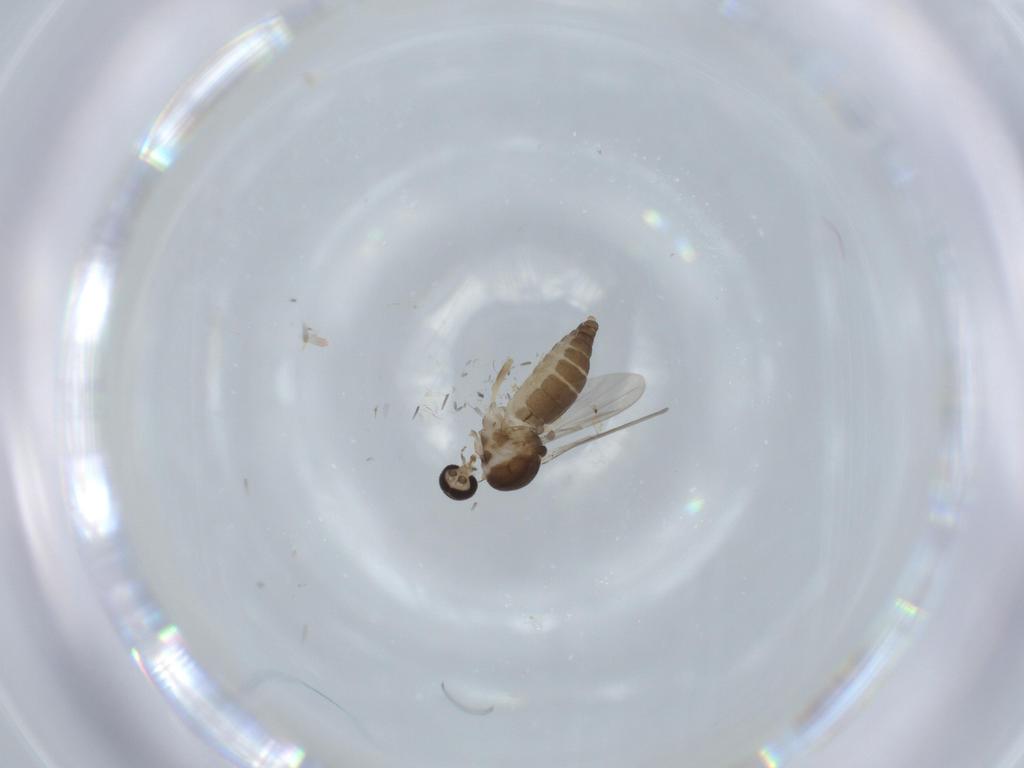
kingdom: Animalia
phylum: Arthropoda
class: Insecta
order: Diptera
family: Ceratopogonidae
